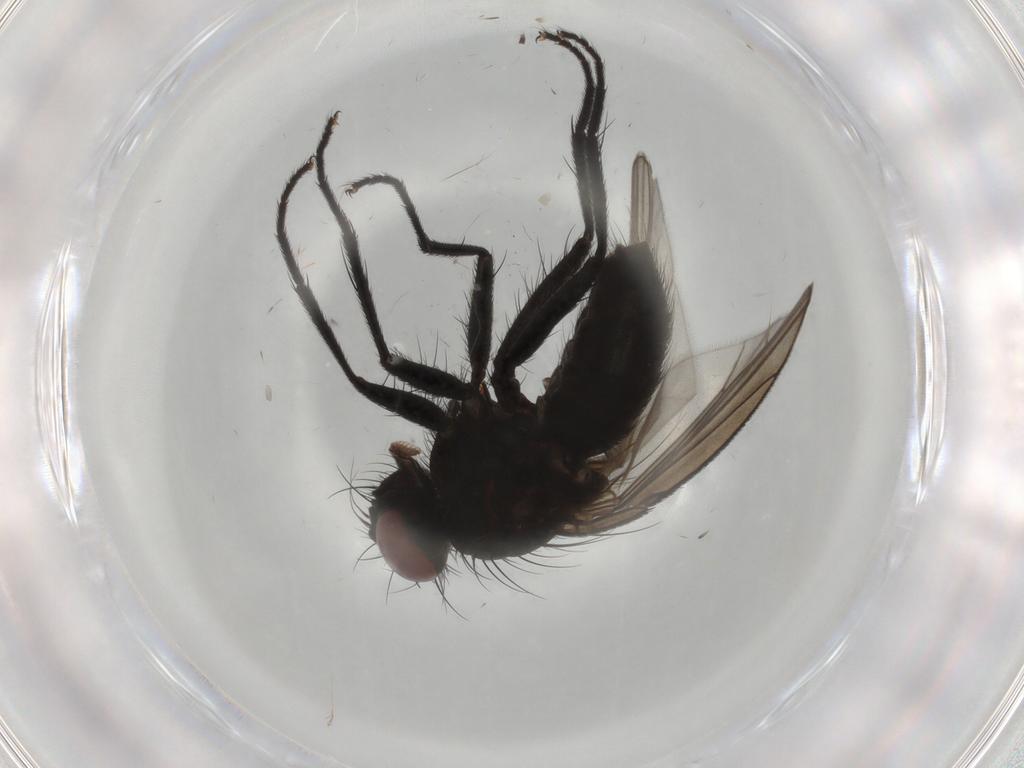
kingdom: Animalia
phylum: Arthropoda
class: Insecta
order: Diptera
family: Muscidae
